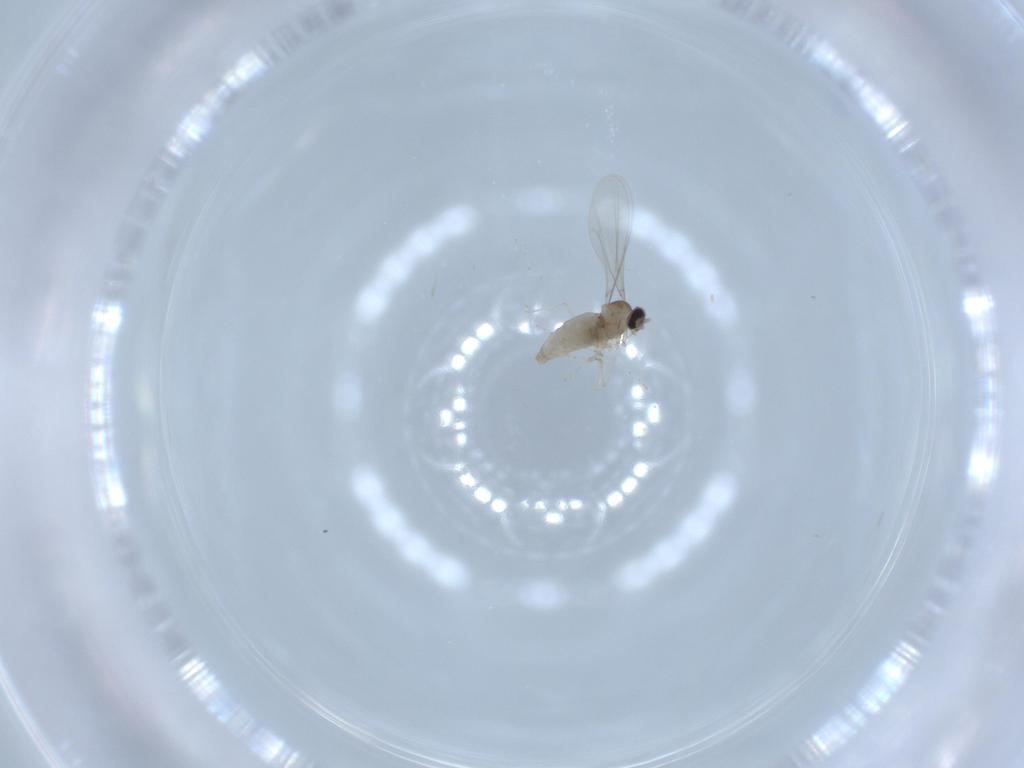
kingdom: Animalia
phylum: Arthropoda
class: Insecta
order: Diptera
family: Cecidomyiidae
